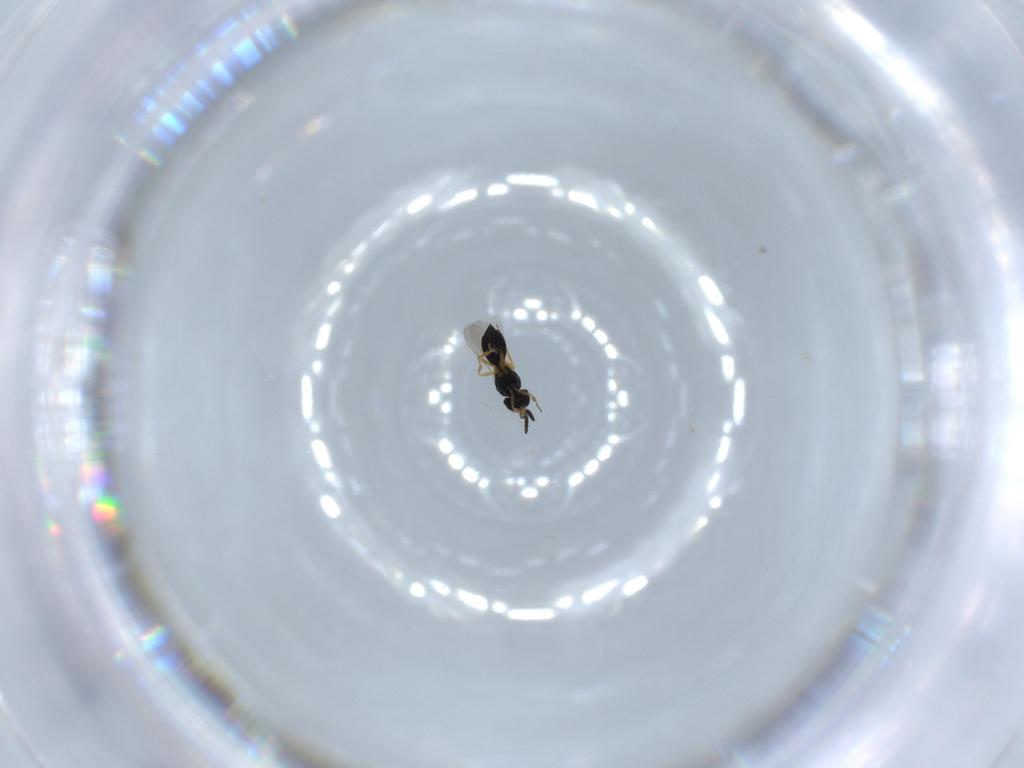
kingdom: Animalia
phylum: Arthropoda
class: Insecta
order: Hymenoptera
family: Scelionidae
